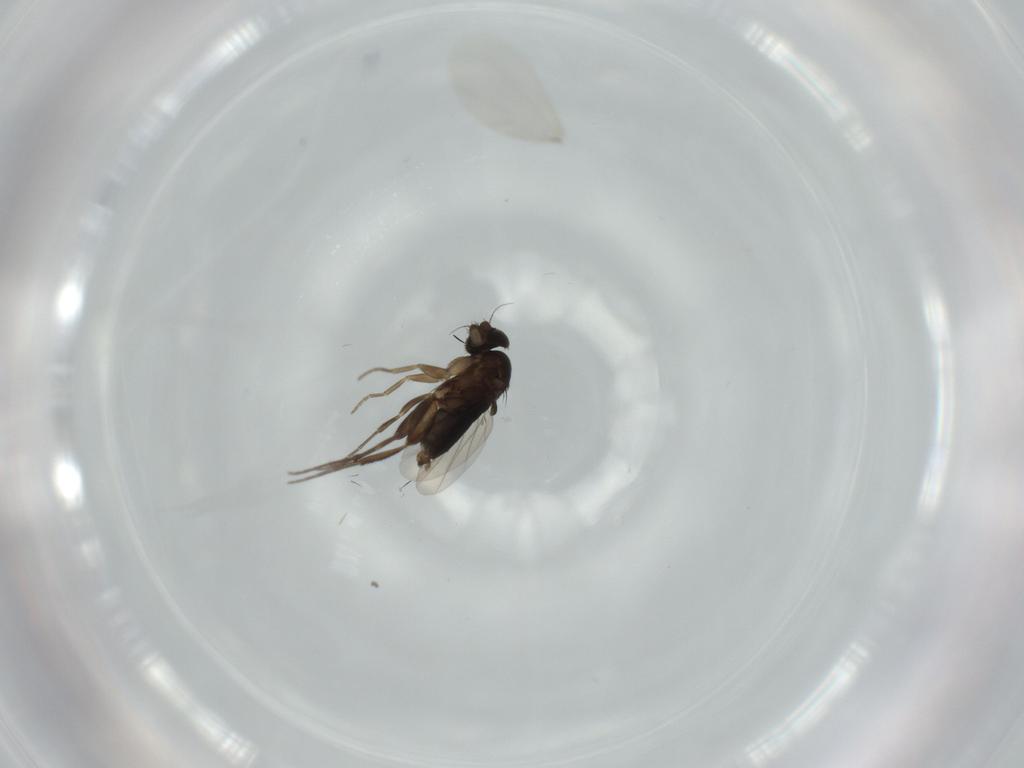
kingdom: Animalia
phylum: Arthropoda
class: Insecta
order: Diptera
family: Phoridae
